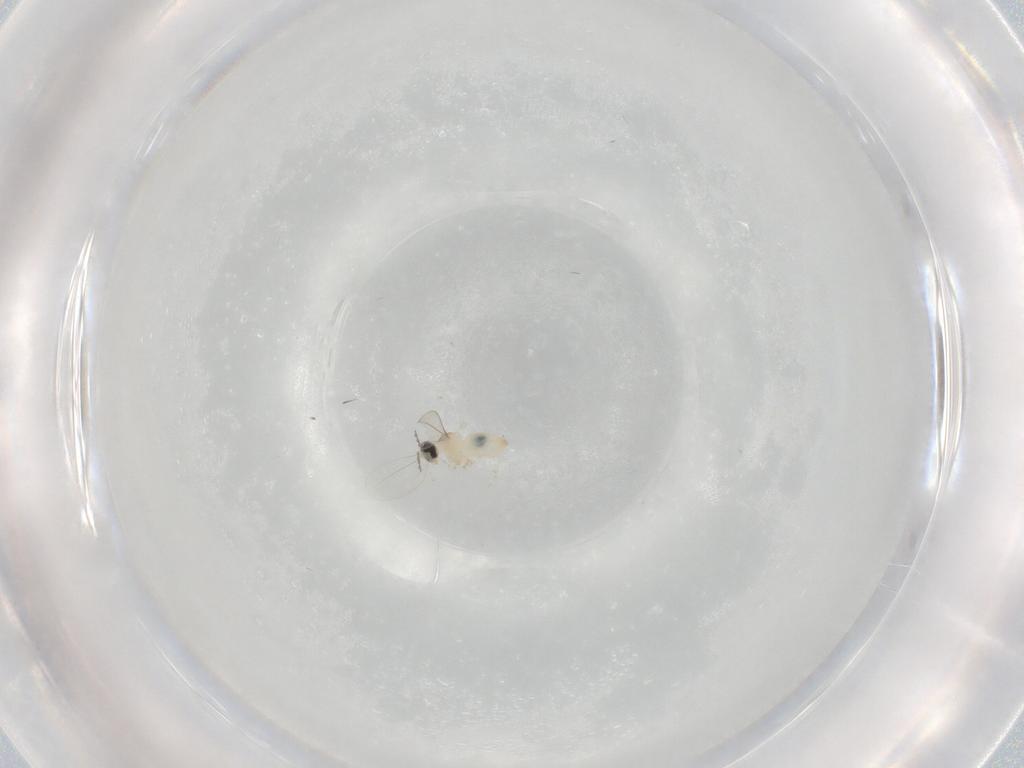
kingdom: Animalia
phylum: Arthropoda
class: Insecta
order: Diptera
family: Cecidomyiidae
